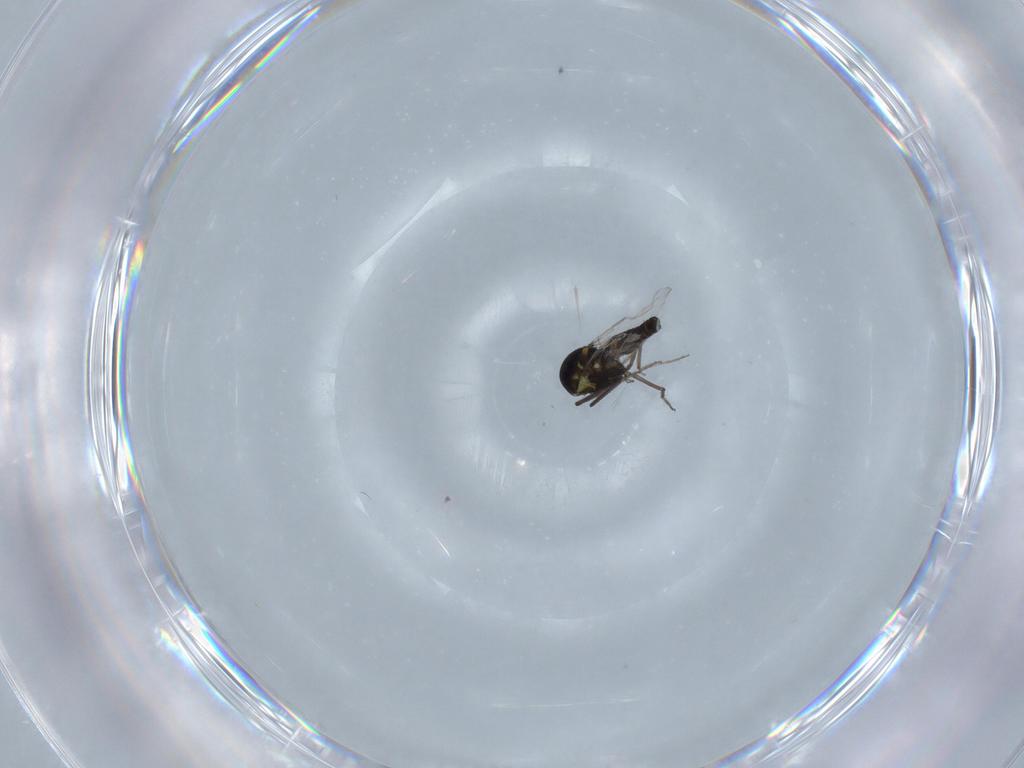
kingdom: Animalia
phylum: Arthropoda
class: Insecta
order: Diptera
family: Ceratopogonidae
